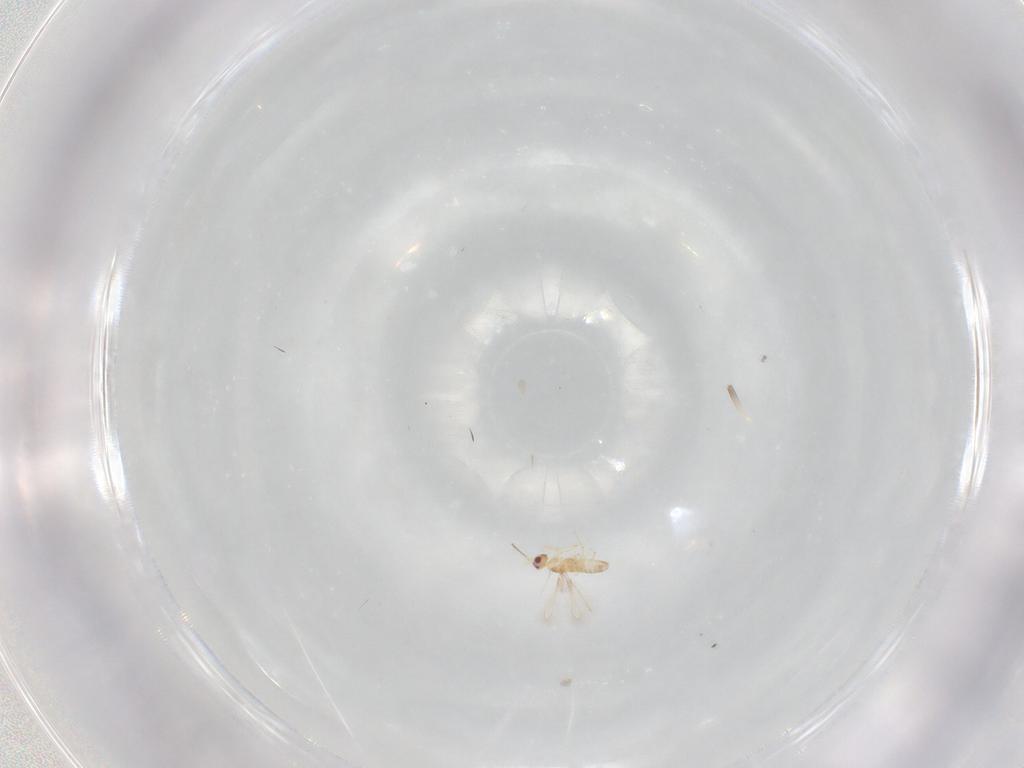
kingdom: Animalia
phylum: Arthropoda
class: Insecta
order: Hymenoptera
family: Mymaridae
